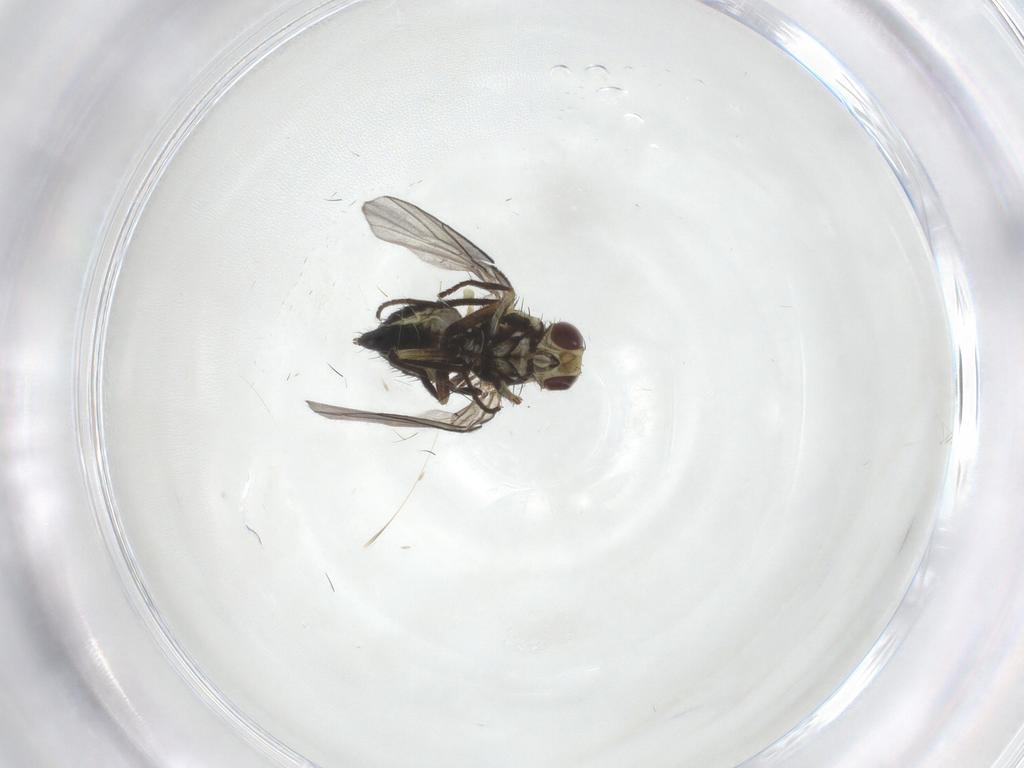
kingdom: Animalia
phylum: Arthropoda
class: Insecta
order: Diptera
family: Agromyzidae
